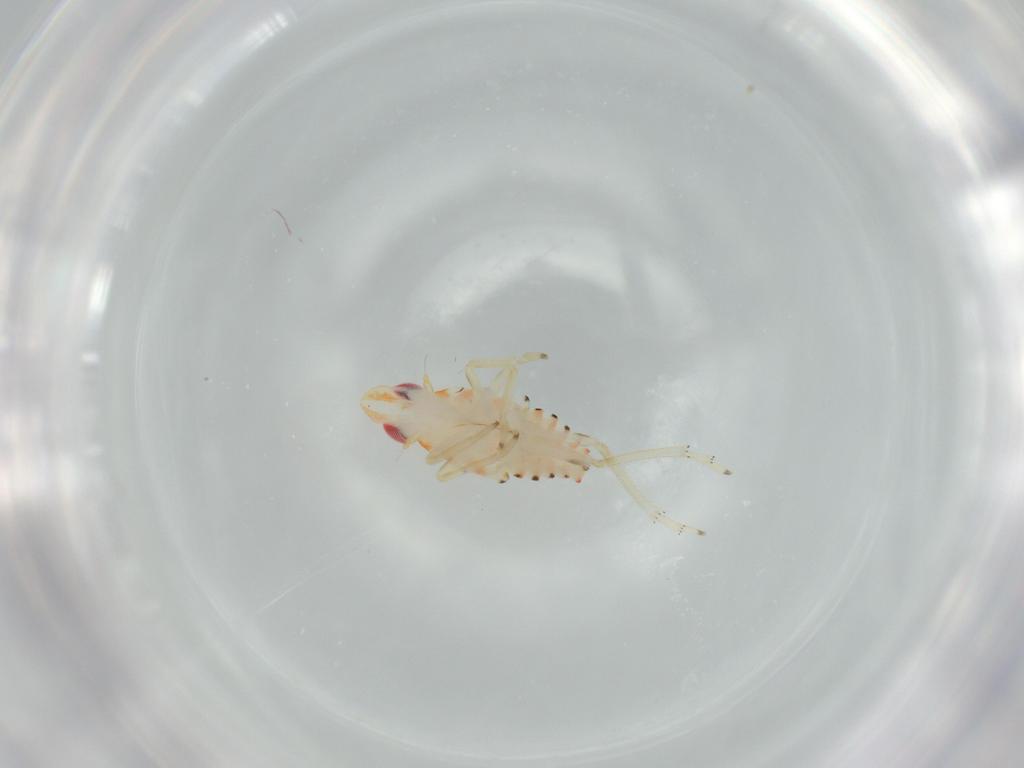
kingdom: Animalia
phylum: Arthropoda
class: Insecta
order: Hemiptera
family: Tropiduchidae
